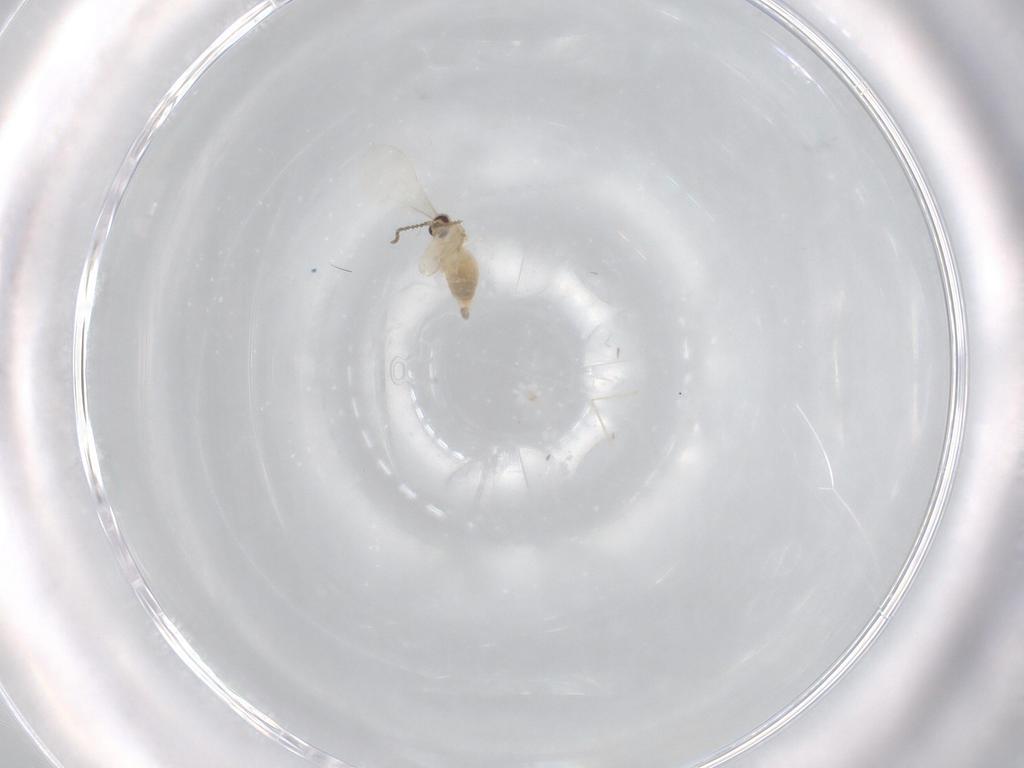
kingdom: Animalia
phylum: Arthropoda
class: Insecta
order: Diptera
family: Cecidomyiidae
